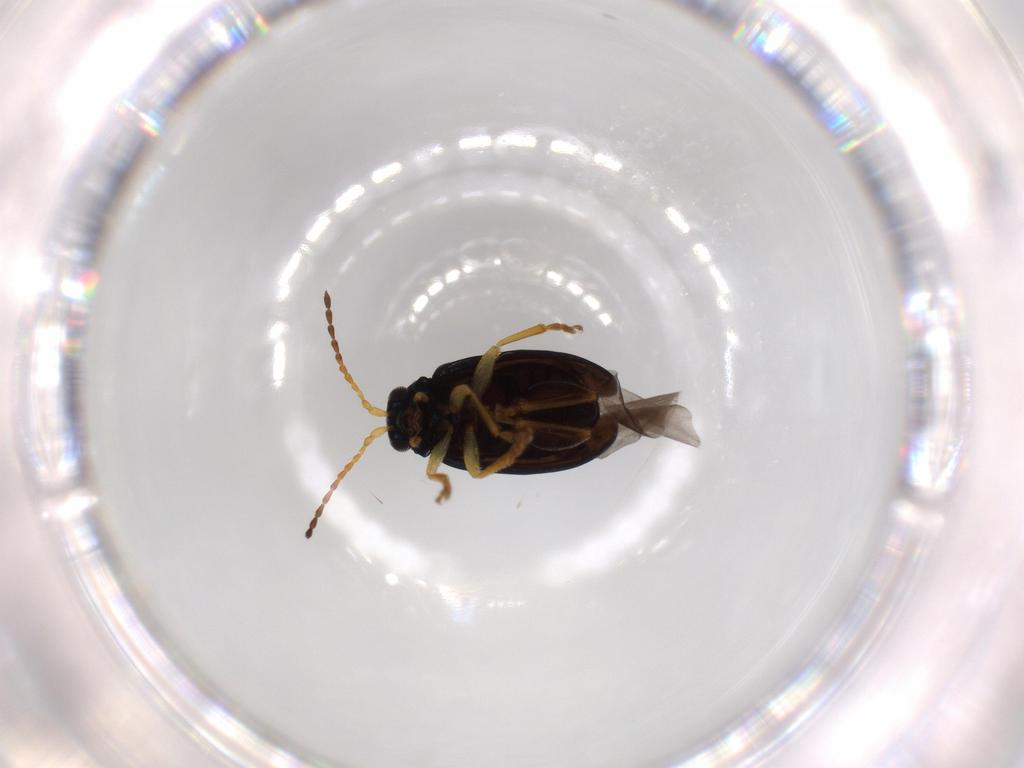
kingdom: Animalia
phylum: Arthropoda
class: Insecta
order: Coleoptera
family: Chrysomelidae
